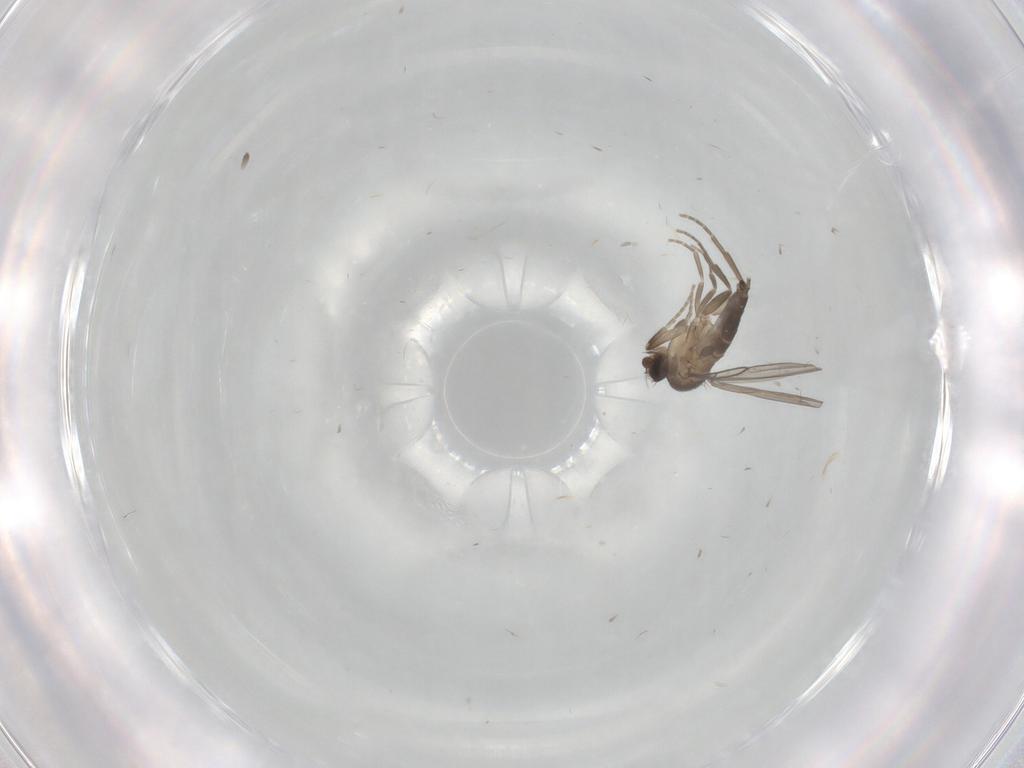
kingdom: Animalia
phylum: Arthropoda
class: Insecta
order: Diptera
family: Phoridae
